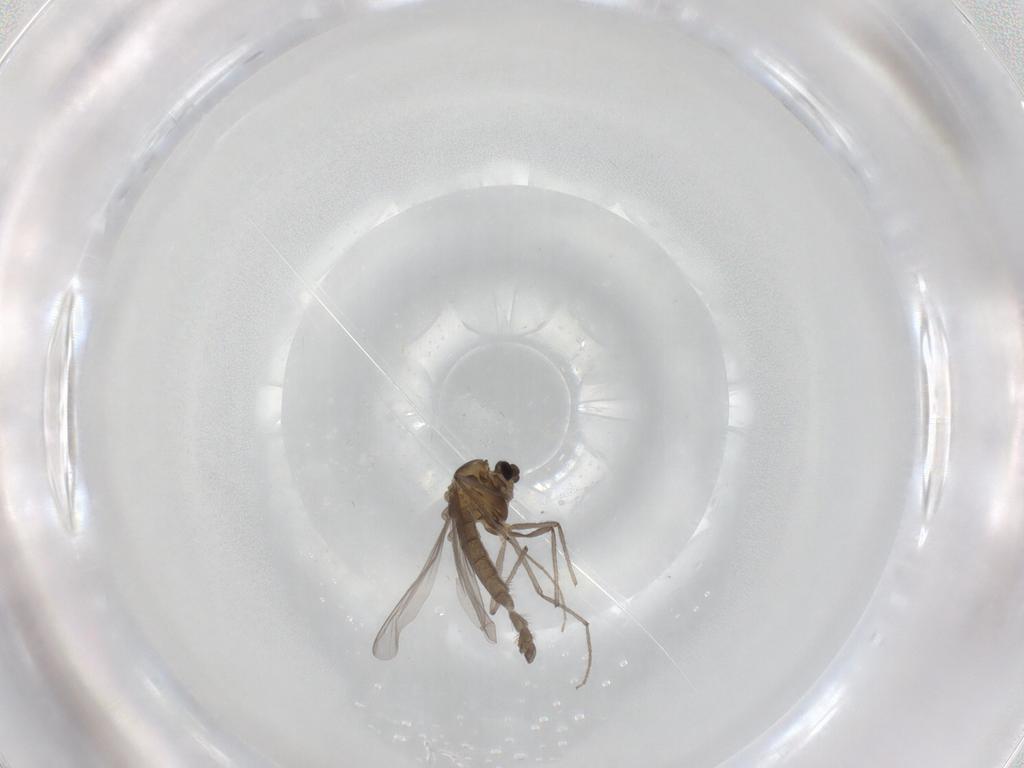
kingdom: Animalia
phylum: Arthropoda
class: Insecta
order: Diptera
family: Chironomidae
